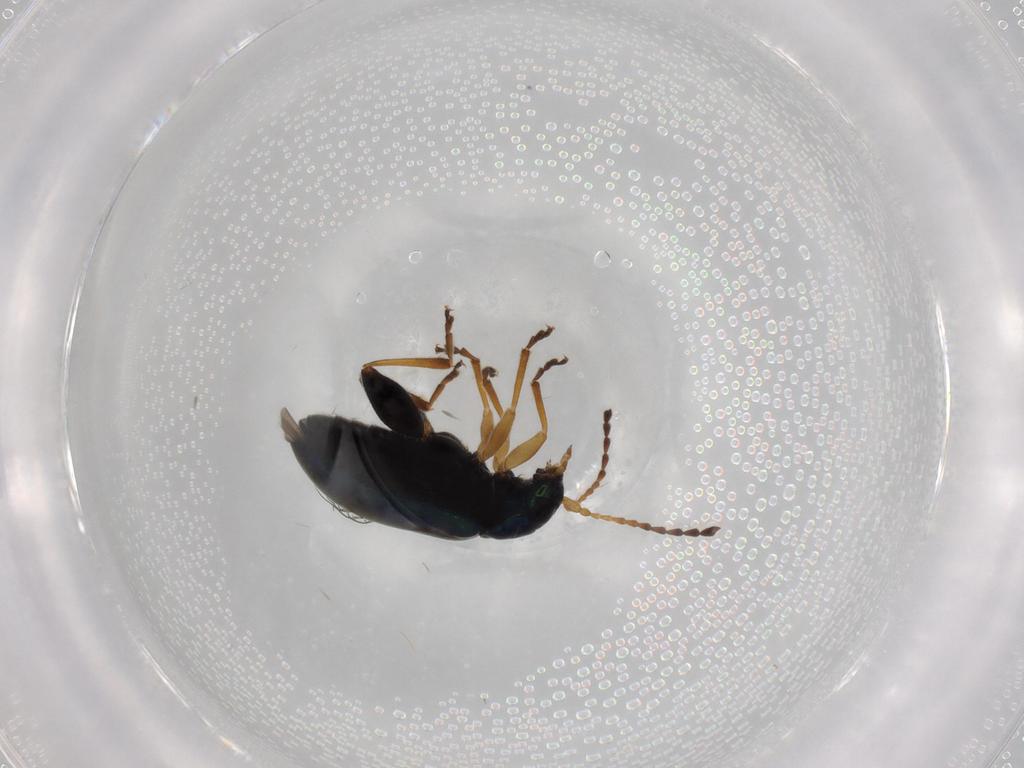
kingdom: Animalia
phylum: Arthropoda
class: Insecta
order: Coleoptera
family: Chrysomelidae
